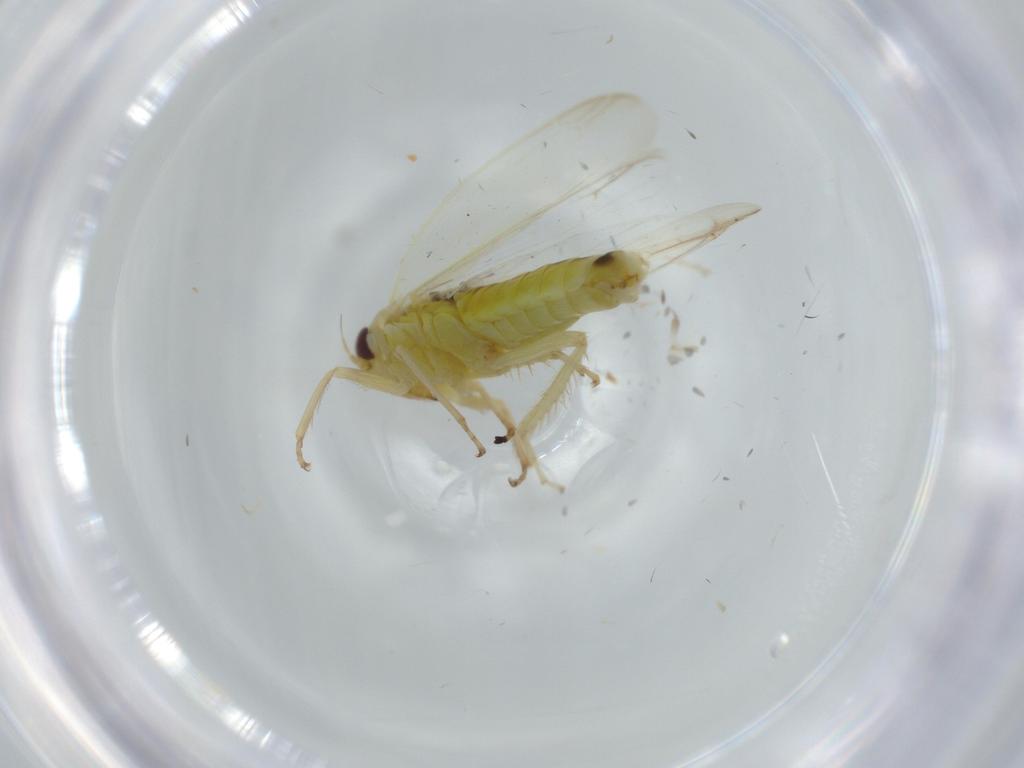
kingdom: Animalia
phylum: Arthropoda
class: Insecta
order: Hemiptera
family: Cicadellidae
